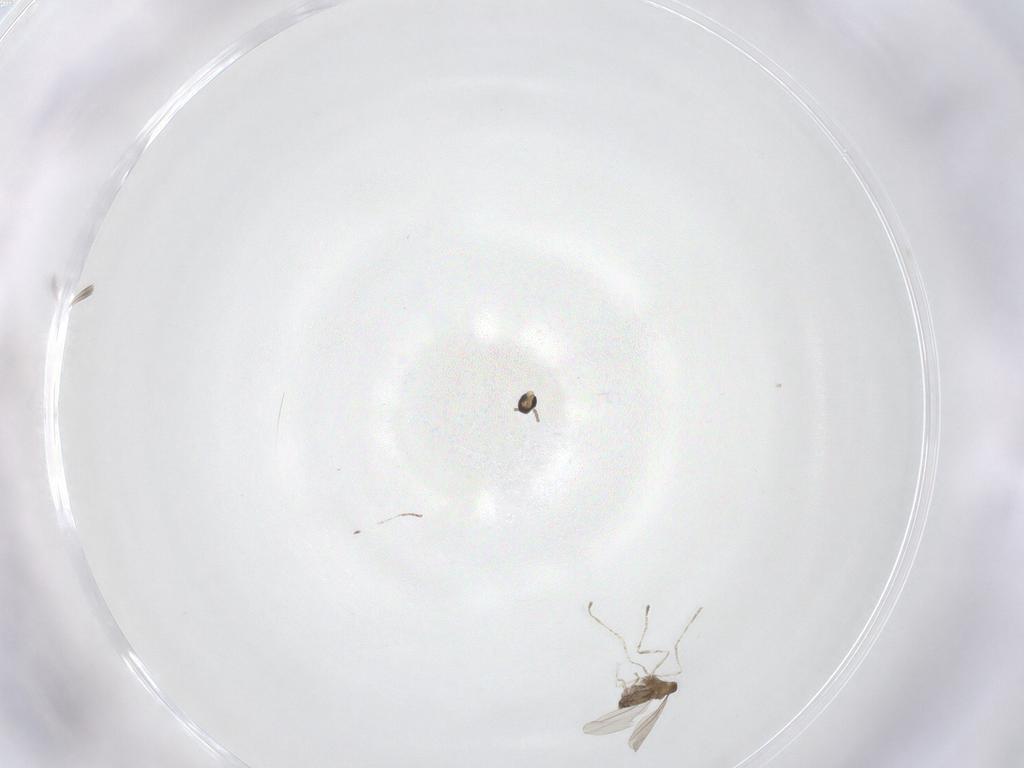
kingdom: Animalia
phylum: Arthropoda
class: Insecta
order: Diptera
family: Cecidomyiidae
